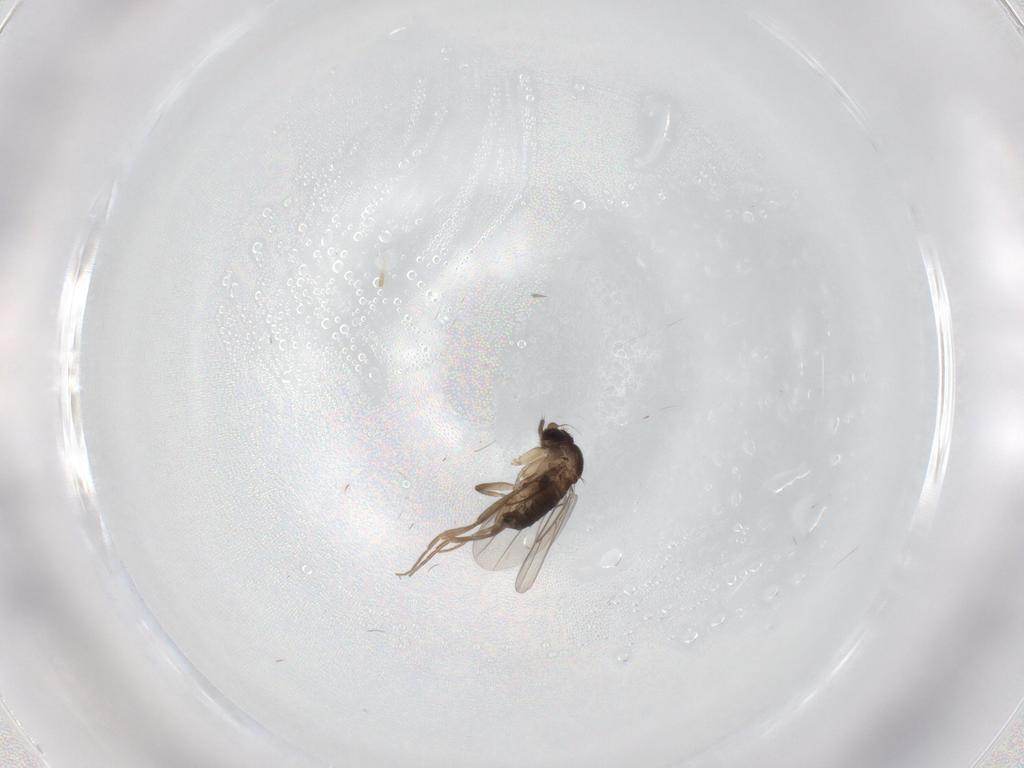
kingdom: Animalia
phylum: Arthropoda
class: Insecta
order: Diptera
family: Phoridae
